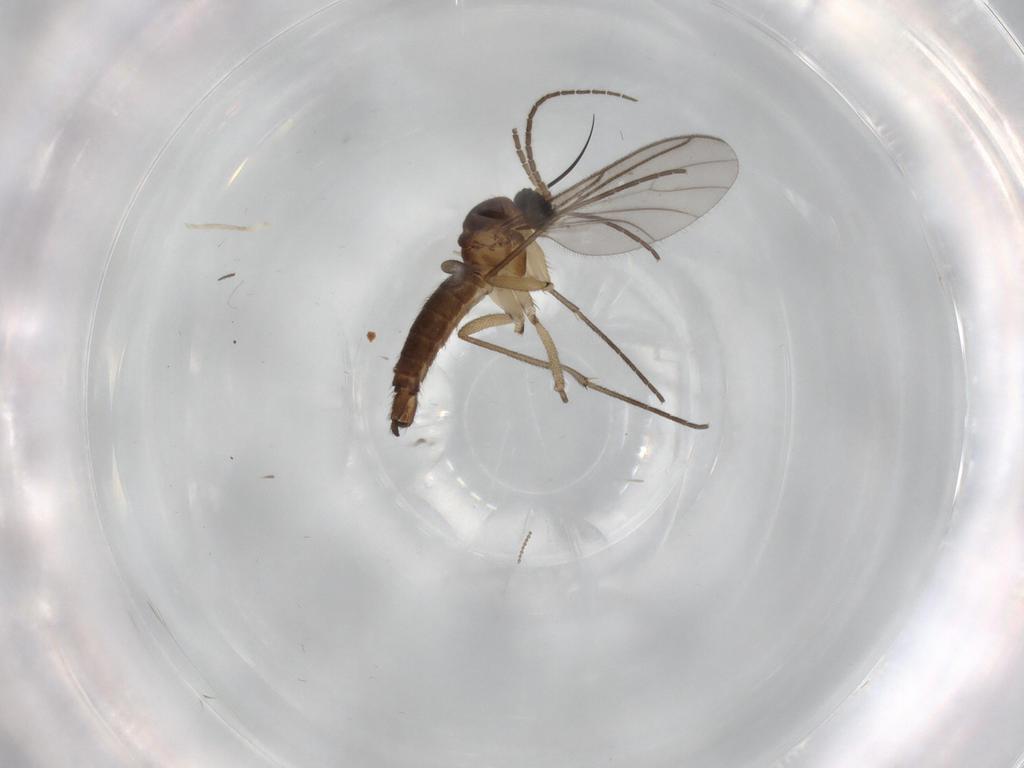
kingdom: Animalia
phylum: Arthropoda
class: Insecta
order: Diptera
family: Sciaridae
